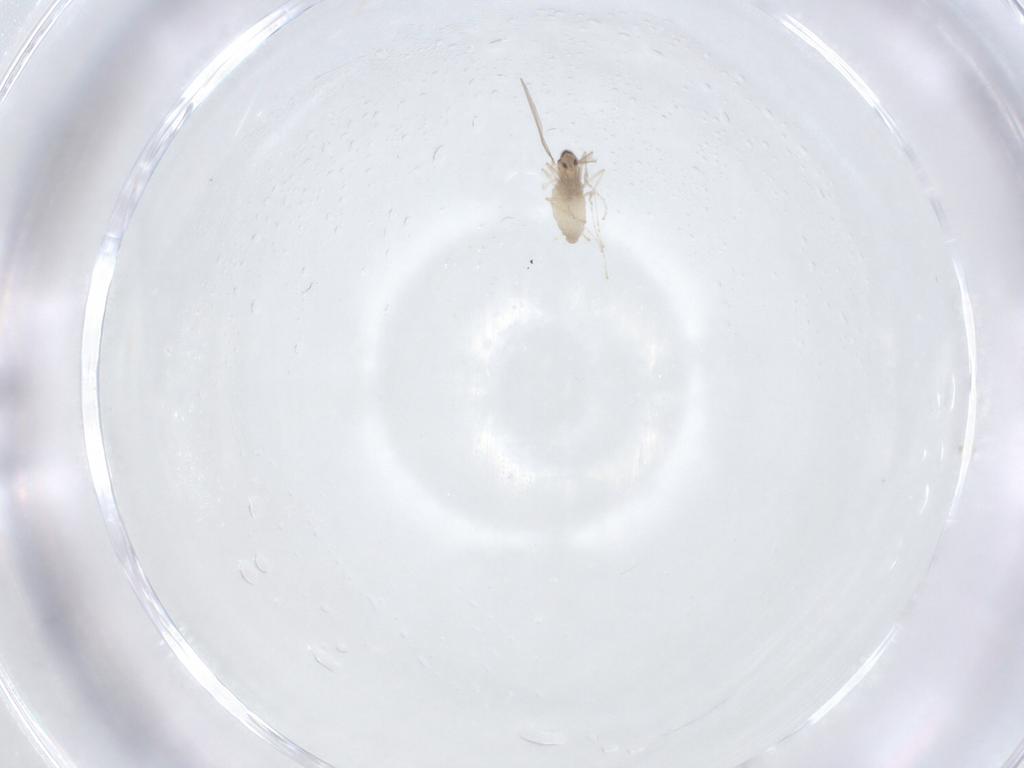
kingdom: Animalia
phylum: Arthropoda
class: Insecta
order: Diptera
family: Cecidomyiidae
